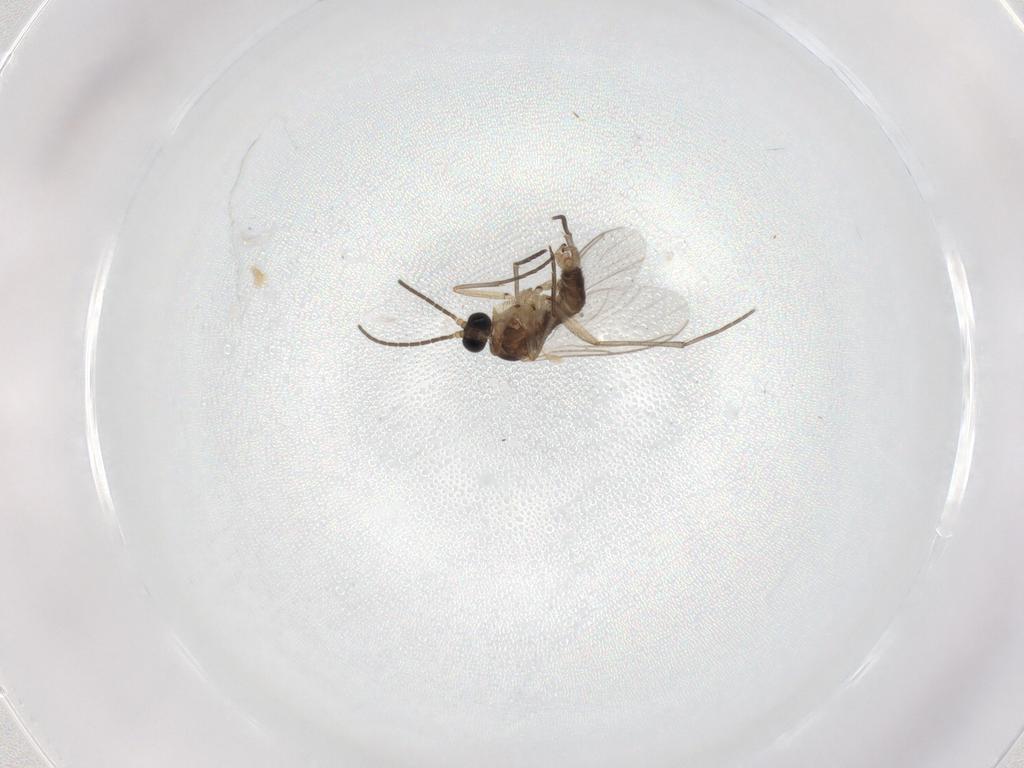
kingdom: Animalia
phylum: Arthropoda
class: Insecta
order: Diptera
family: Sciaridae
